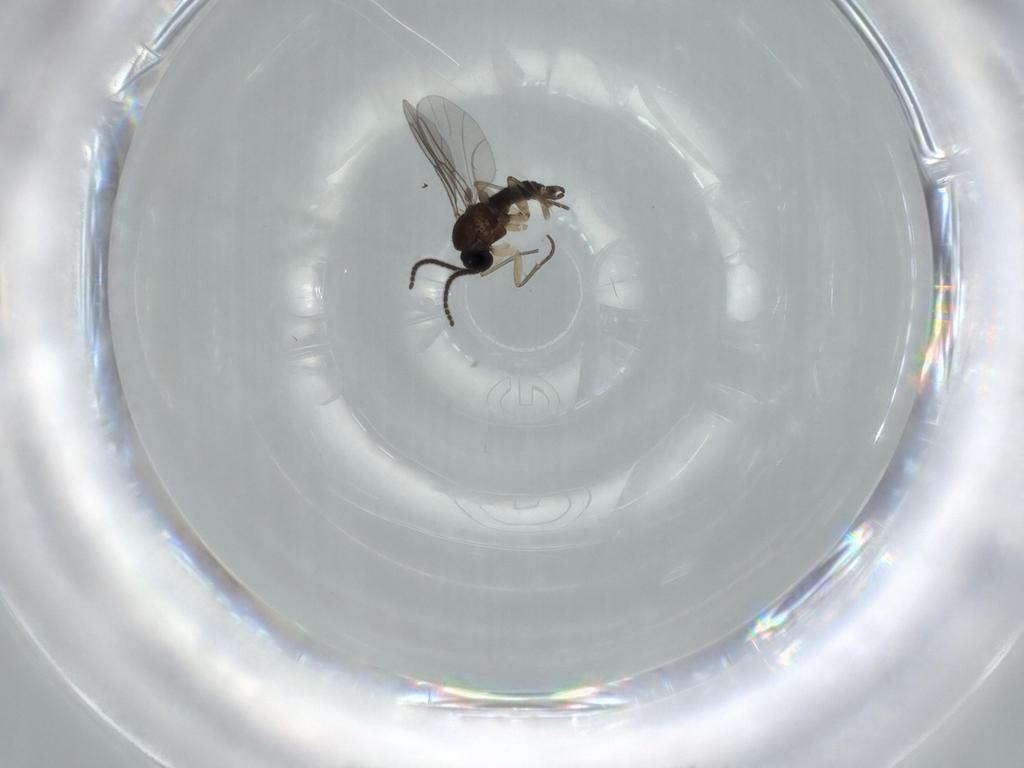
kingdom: Animalia
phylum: Arthropoda
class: Insecta
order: Diptera
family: Sciaridae
